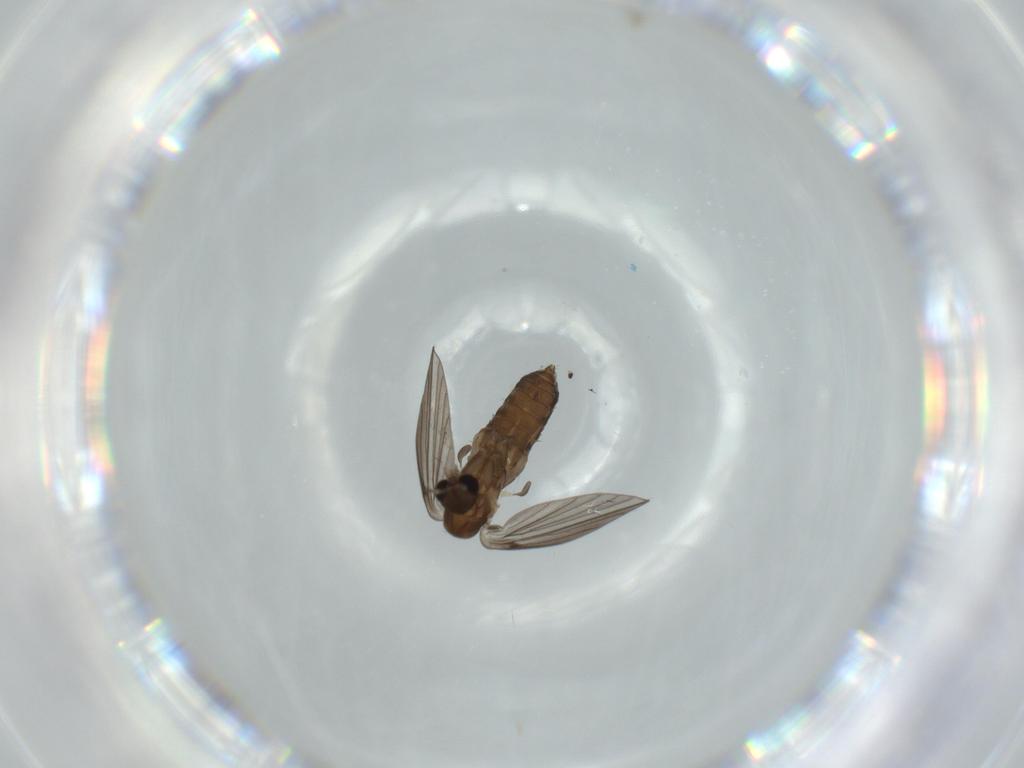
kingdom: Animalia
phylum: Arthropoda
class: Insecta
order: Diptera
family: Psychodidae
